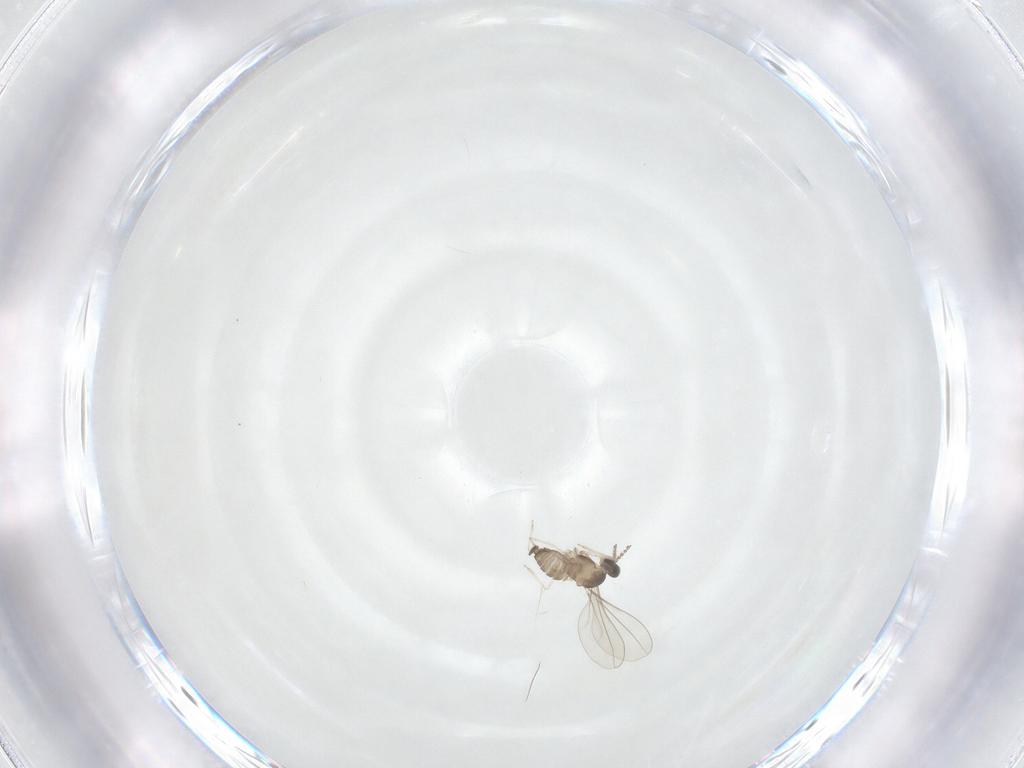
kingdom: Animalia
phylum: Arthropoda
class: Insecta
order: Diptera
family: Cecidomyiidae
